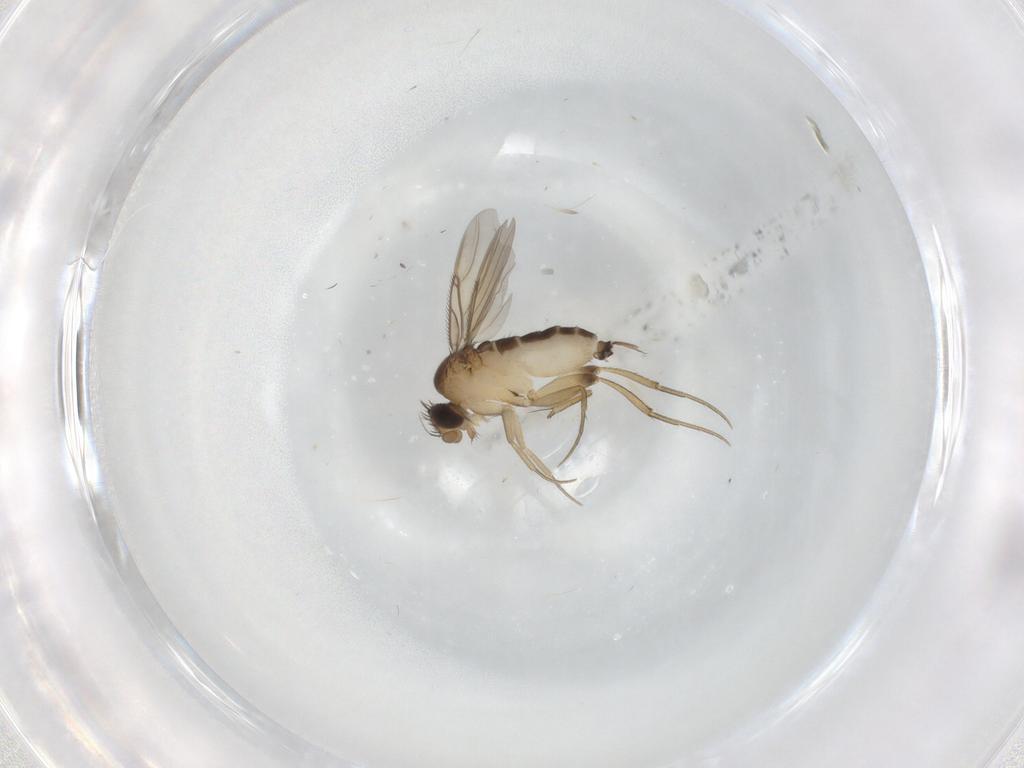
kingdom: Animalia
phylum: Arthropoda
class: Insecta
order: Diptera
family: Phoridae
